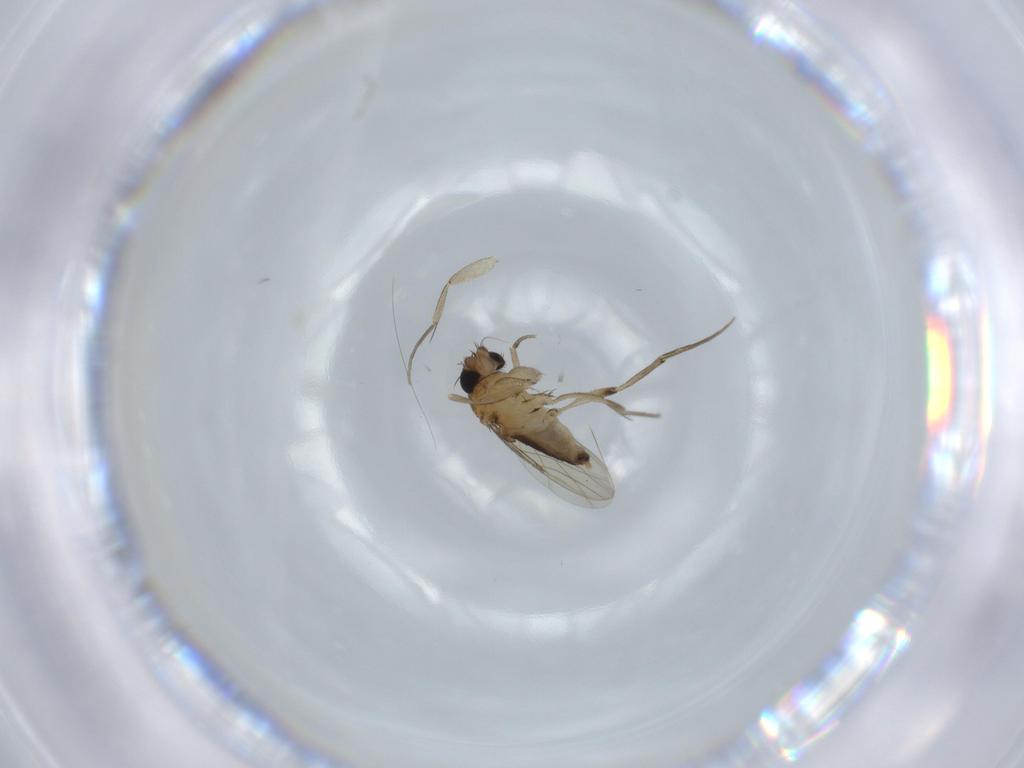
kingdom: Animalia
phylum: Arthropoda
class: Insecta
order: Diptera
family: Phoridae
